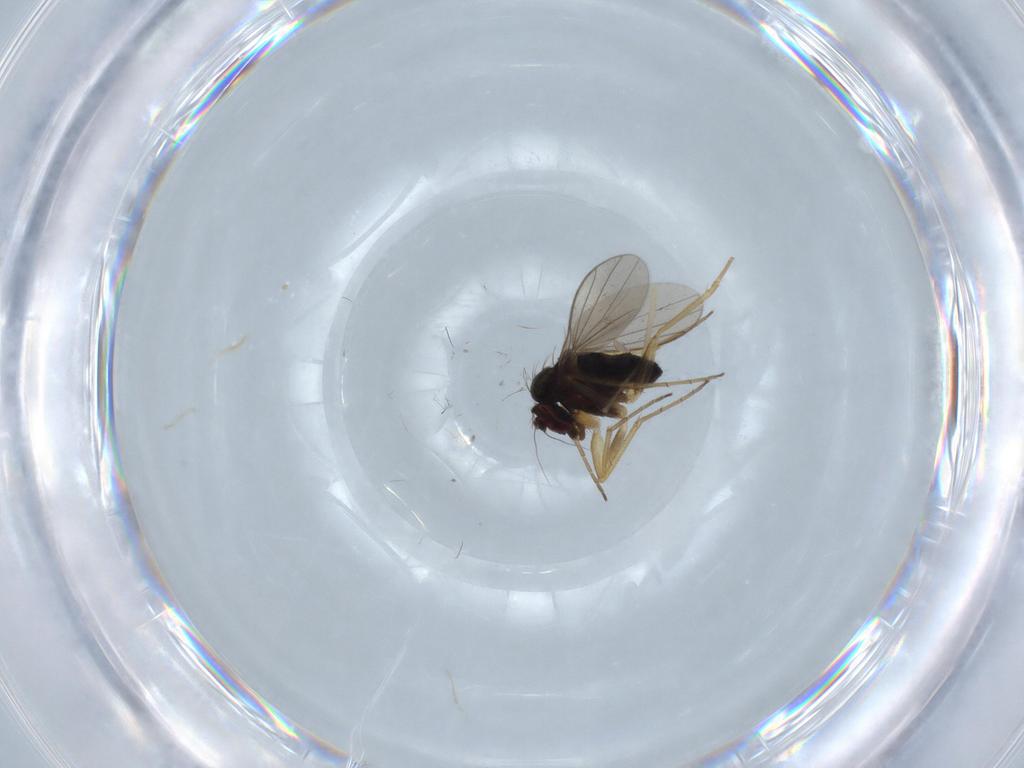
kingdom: Animalia
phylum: Arthropoda
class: Insecta
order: Diptera
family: Dolichopodidae
